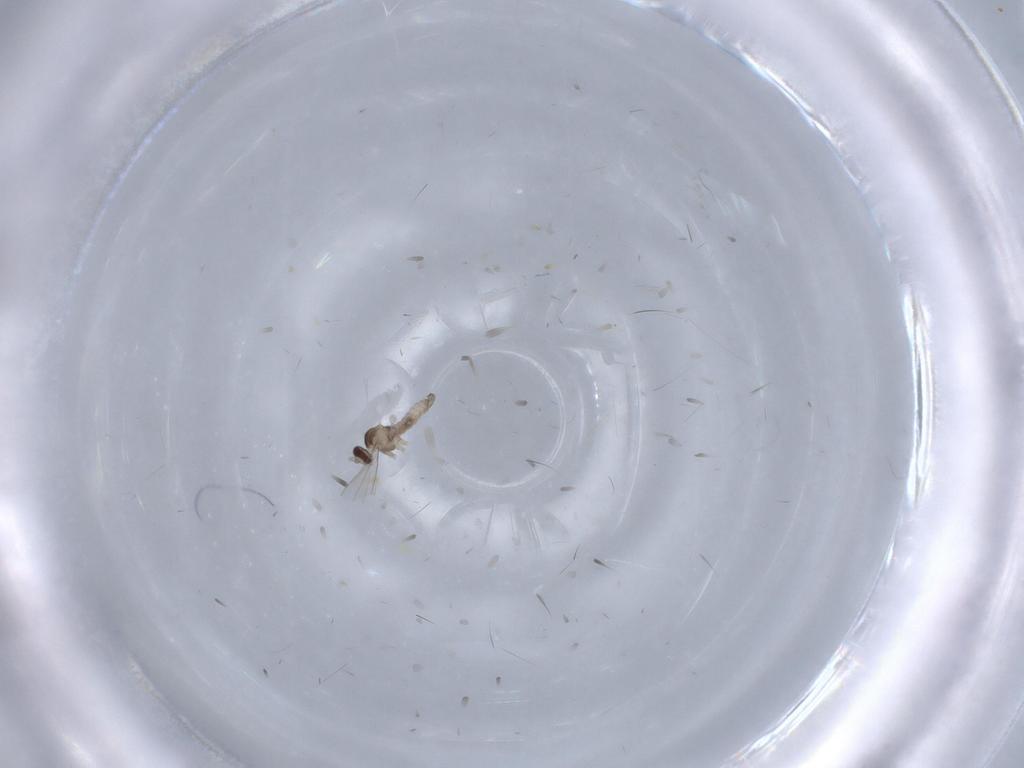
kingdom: Animalia
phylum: Arthropoda
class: Insecta
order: Diptera
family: Cecidomyiidae
